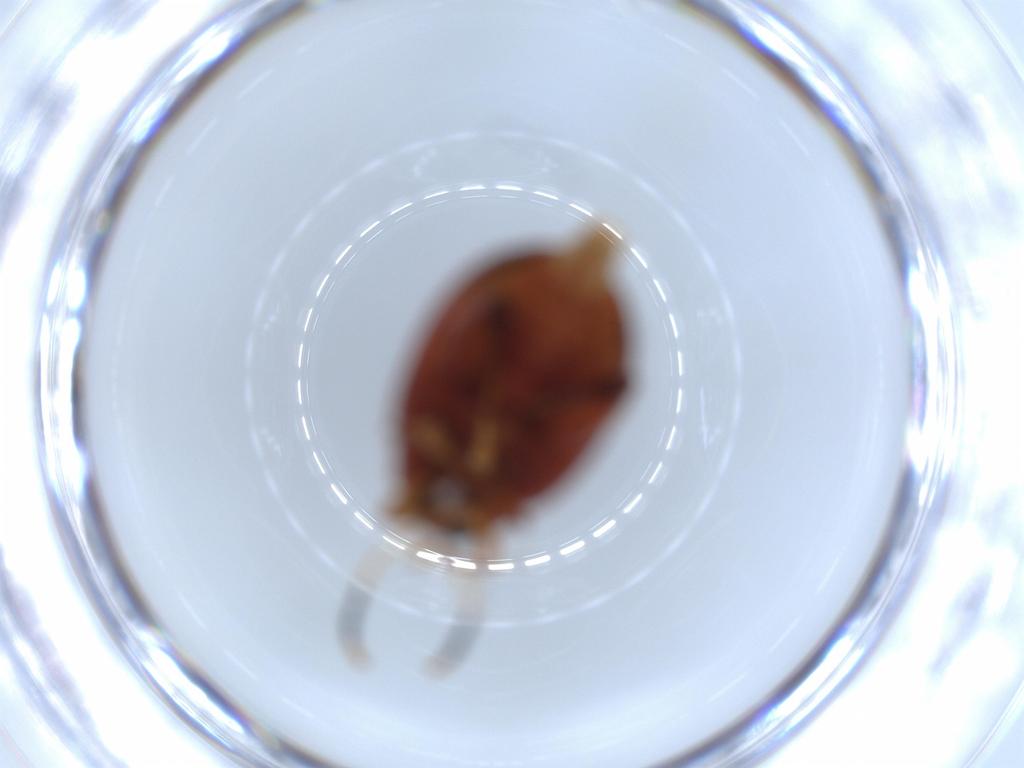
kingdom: Animalia
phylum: Arthropoda
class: Insecta
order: Coleoptera
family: Chrysomelidae
